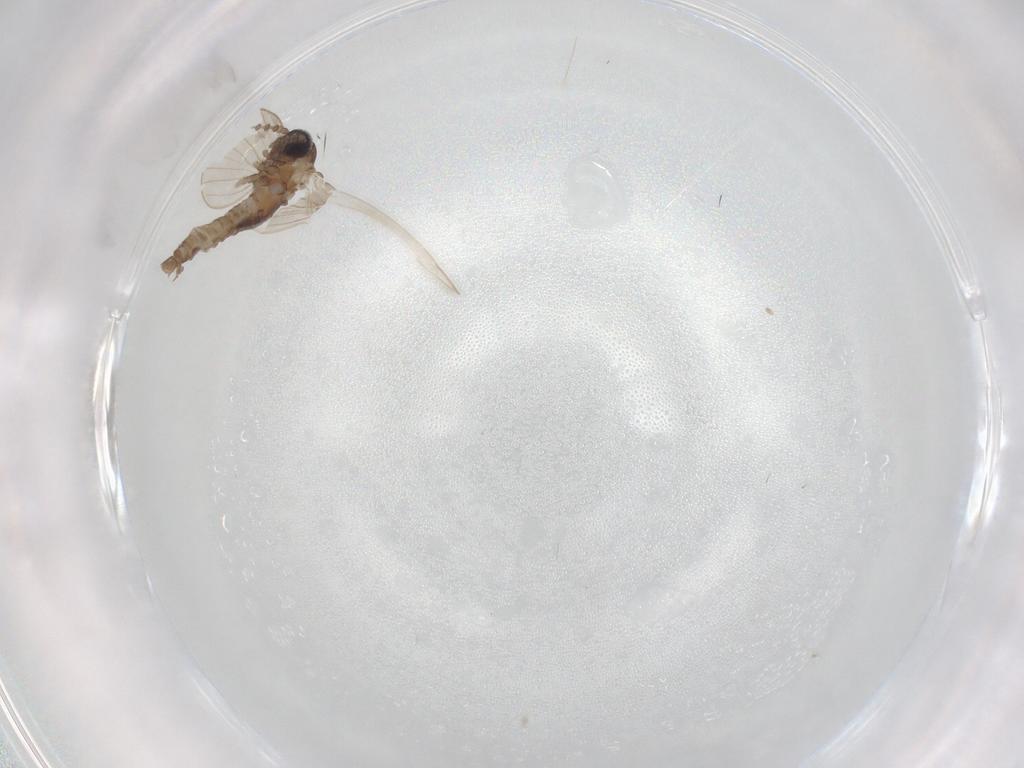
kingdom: Animalia
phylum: Arthropoda
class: Insecta
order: Diptera
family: Psychodidae
